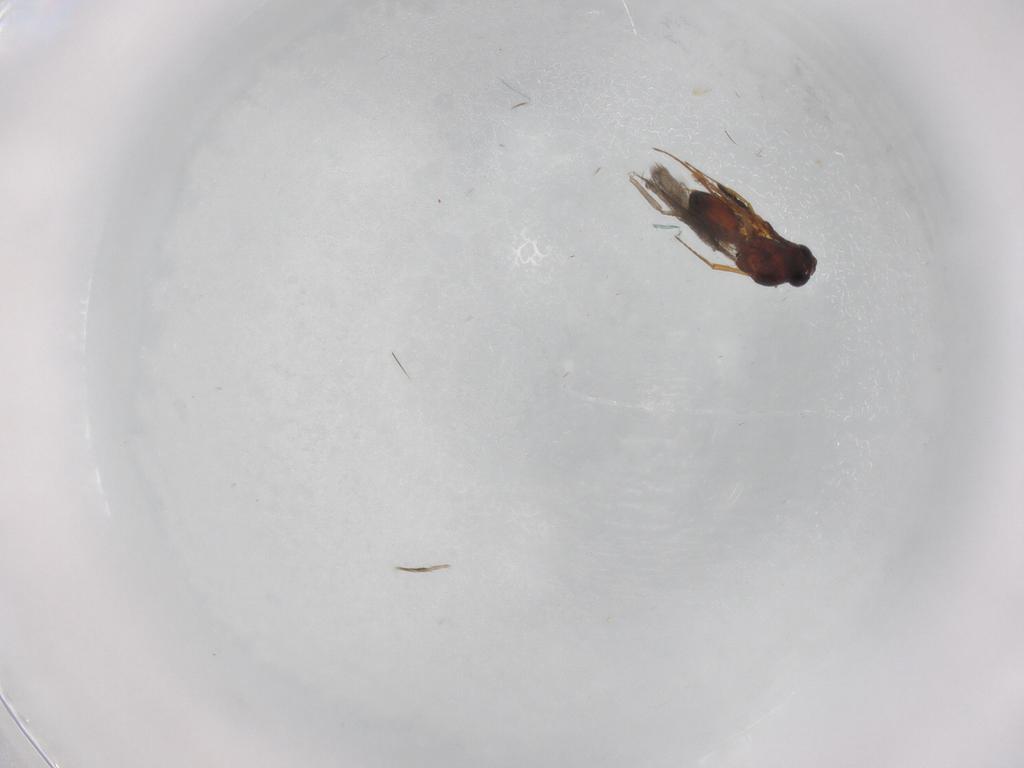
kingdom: Animalia
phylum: Arthropoda
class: Insecta
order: Hymenoptera
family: Figitidae
